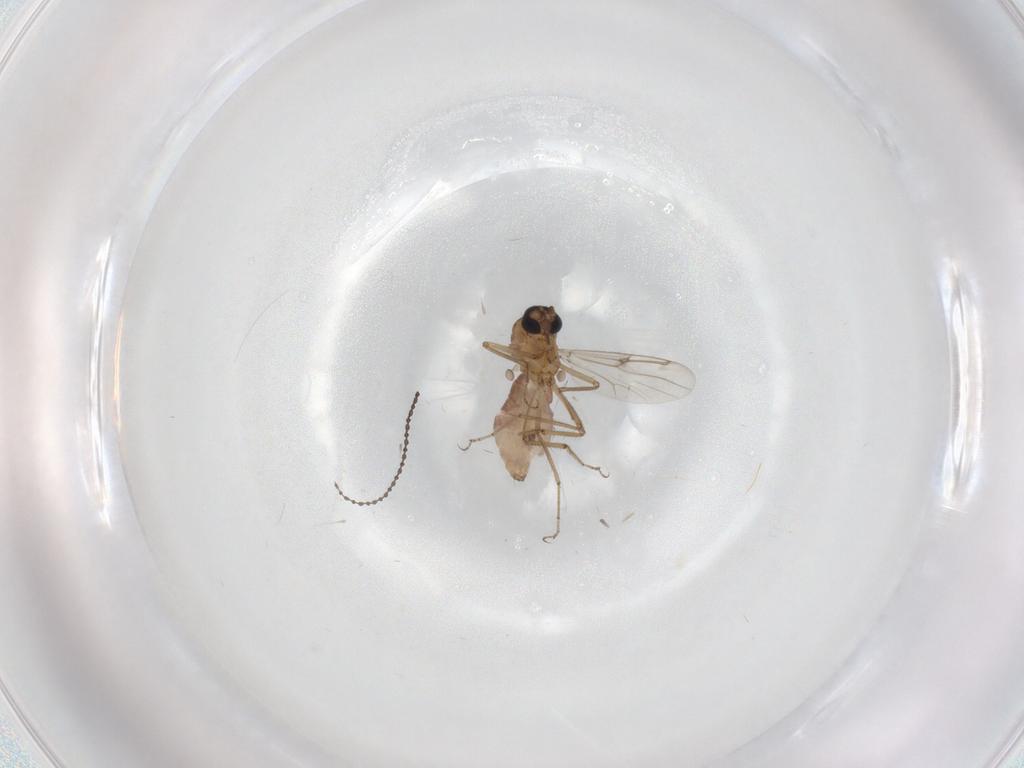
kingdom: Animalia
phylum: Arthropoda
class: Insecta
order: Diptera
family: Ceratopogonidae
